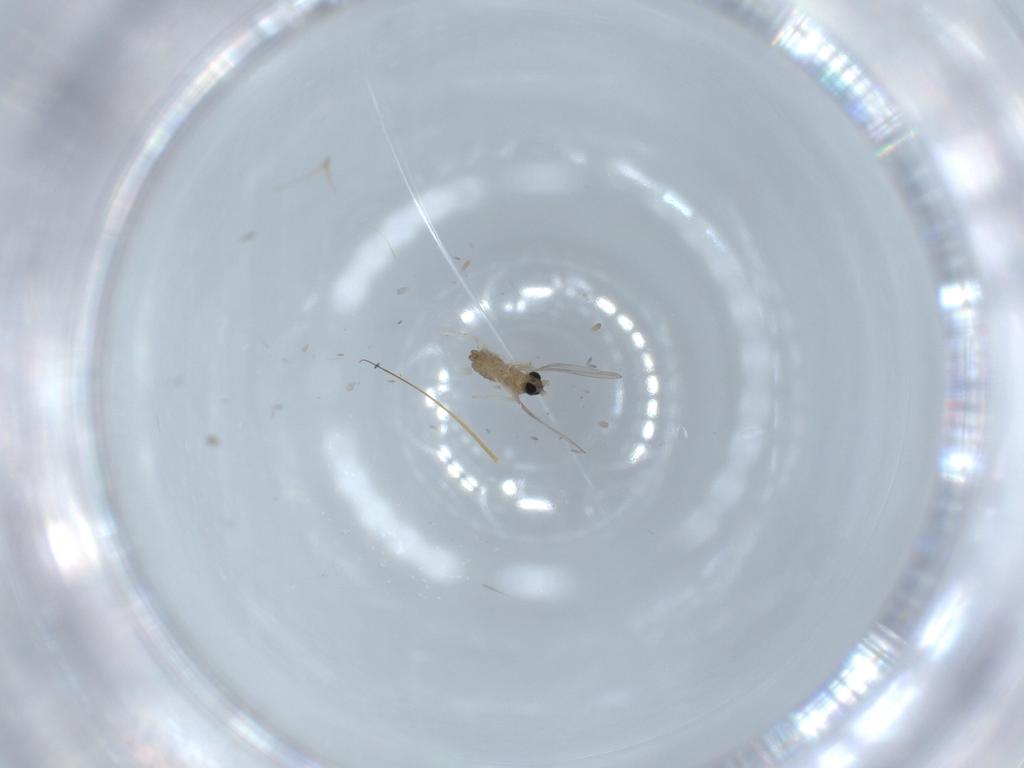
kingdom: Animalia
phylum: Arthropoda
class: Insecta
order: Diptera
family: Cecidomyiidae
